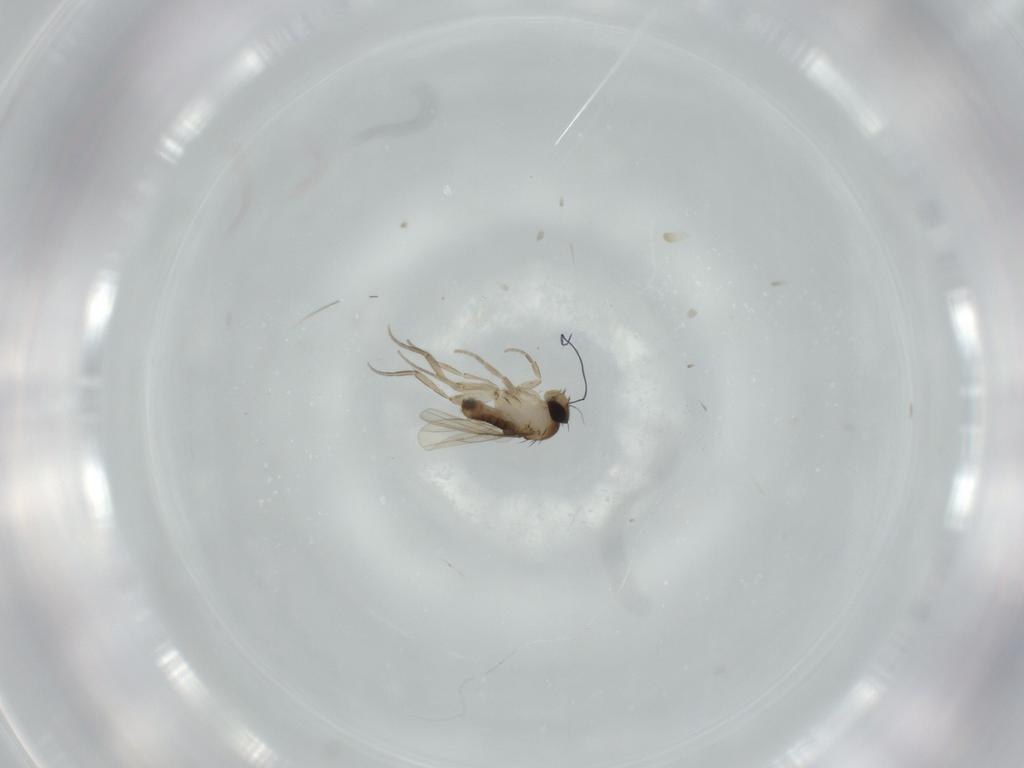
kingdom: Animalia
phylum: Arthropoda
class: Insecta
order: Diptera
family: Phoridae
